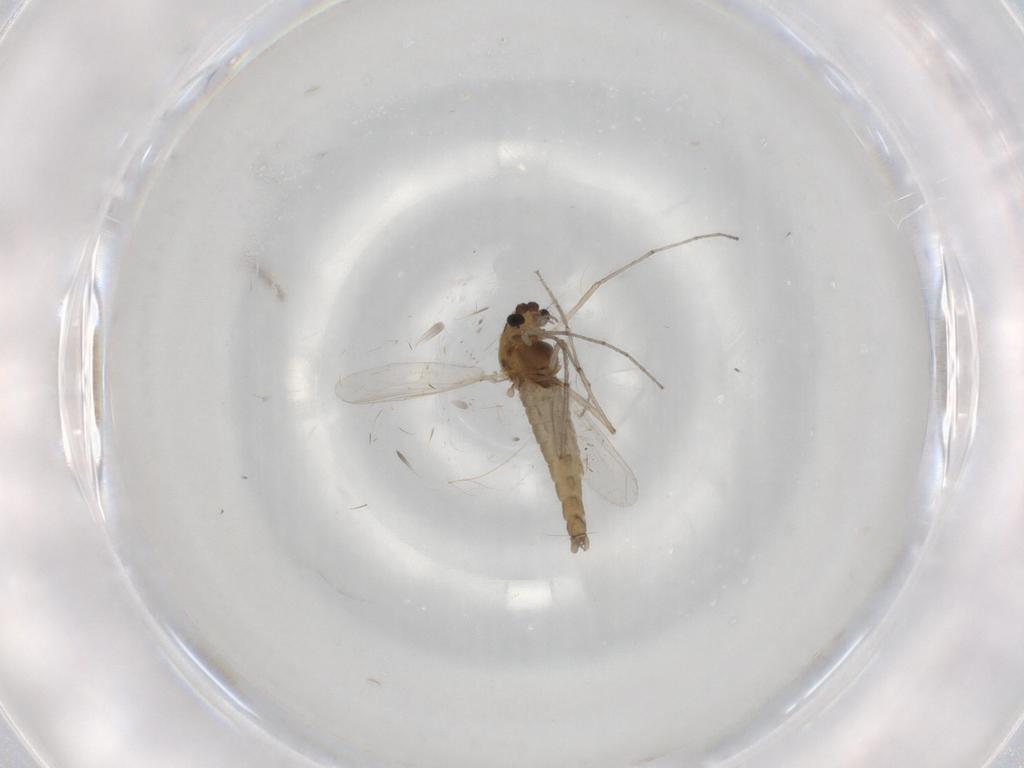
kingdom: Animalia
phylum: Arthropoda
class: Insecta
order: Diptera
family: Chironomidae
